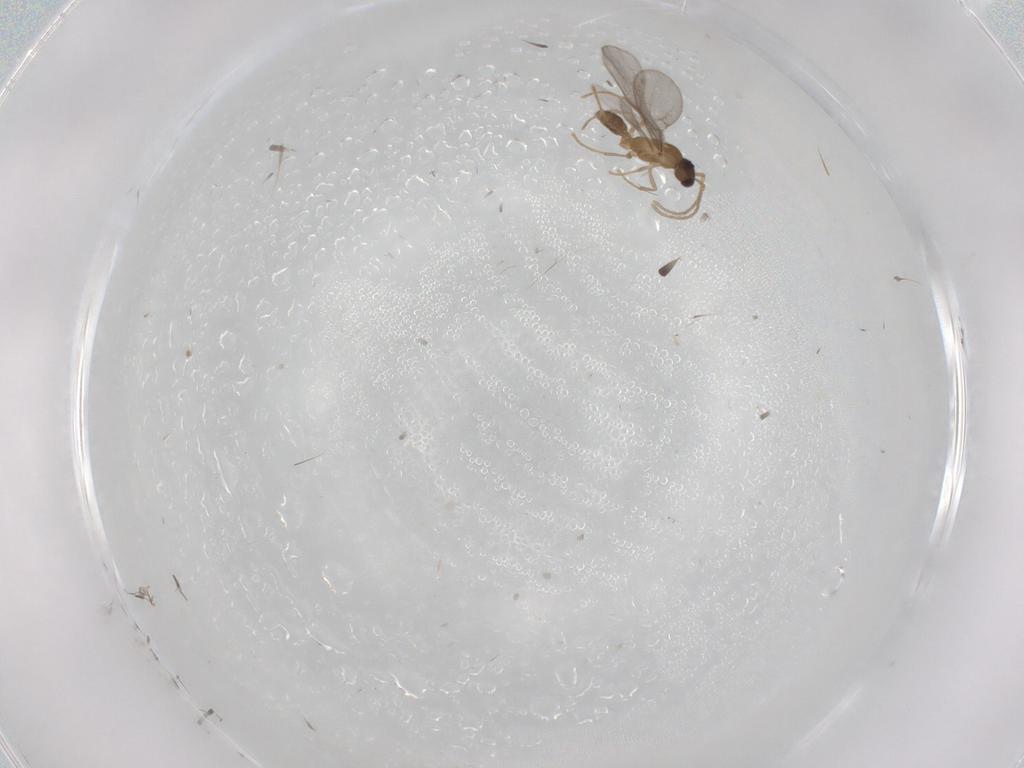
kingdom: Animalia
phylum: Arthropoda
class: Insecta
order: Hymenoptera
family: Formicidae
